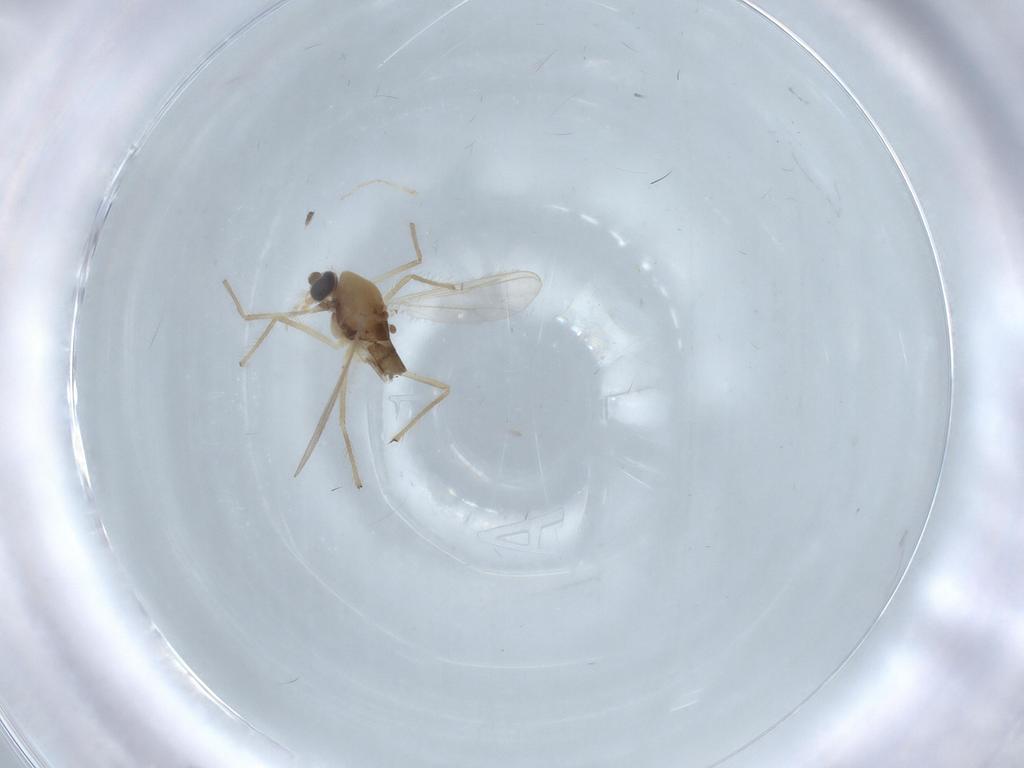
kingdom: Animalia
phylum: Arthropoda
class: Insecta
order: Diptera
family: Chironomidae
